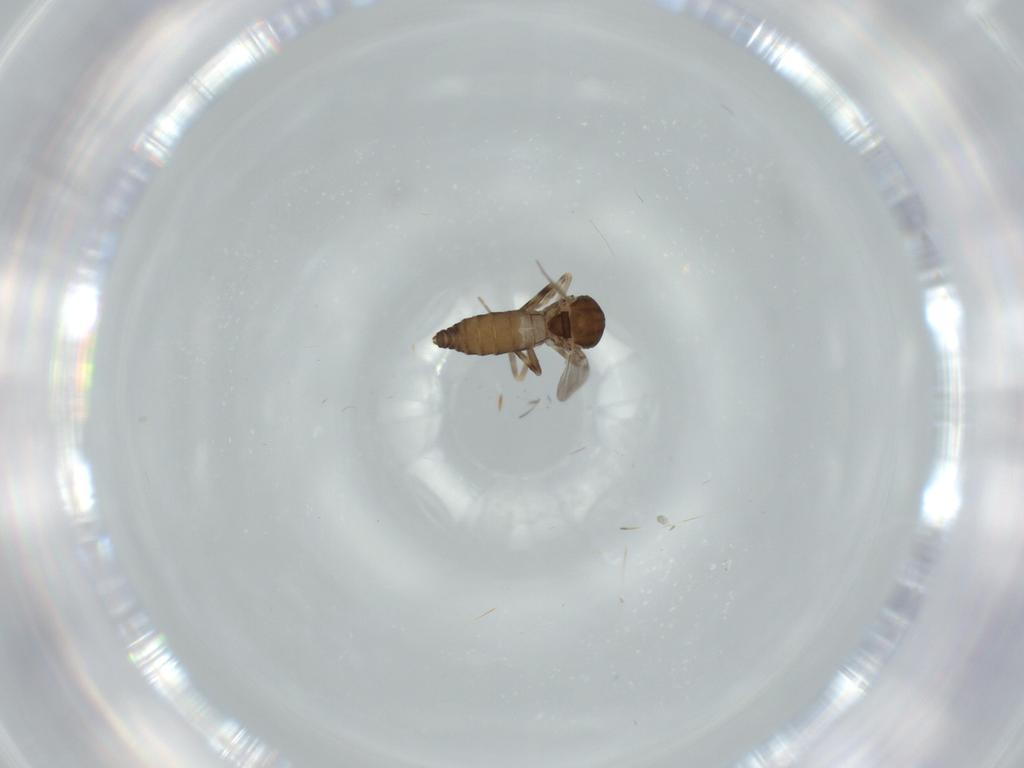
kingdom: Animalia
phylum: Arthropoda
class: Insecta
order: Diptera
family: Ceratopogonidae
